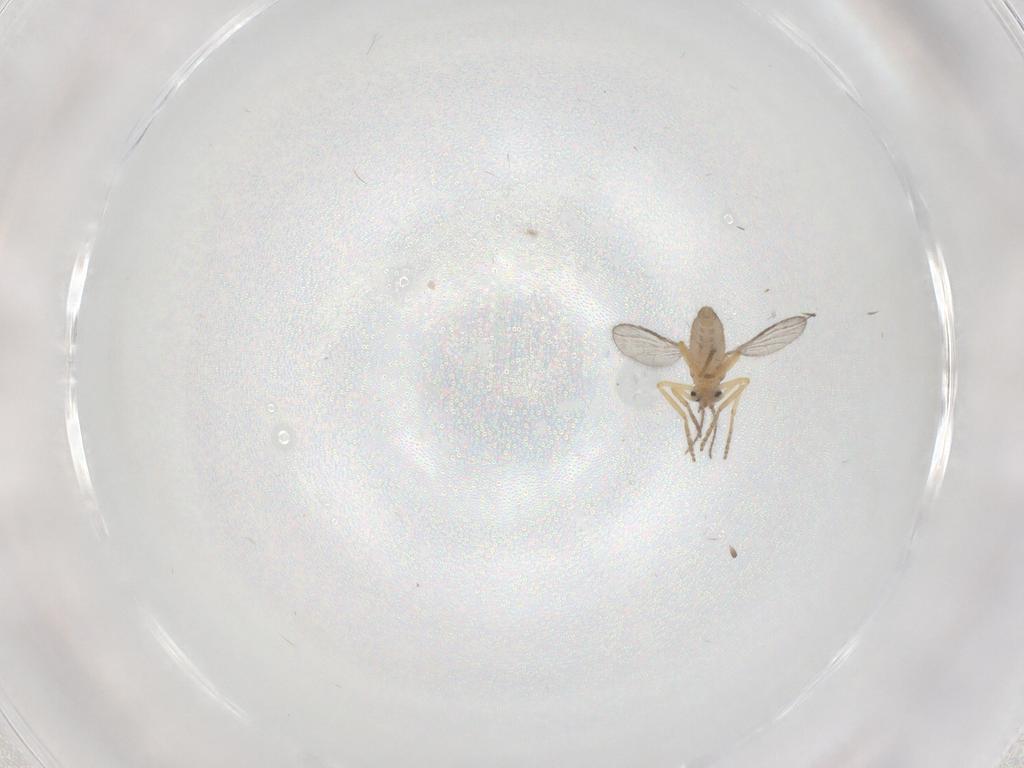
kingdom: Animalia
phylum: Arthropoda
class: Insecta
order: Diptera
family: Ceratopogonidae
